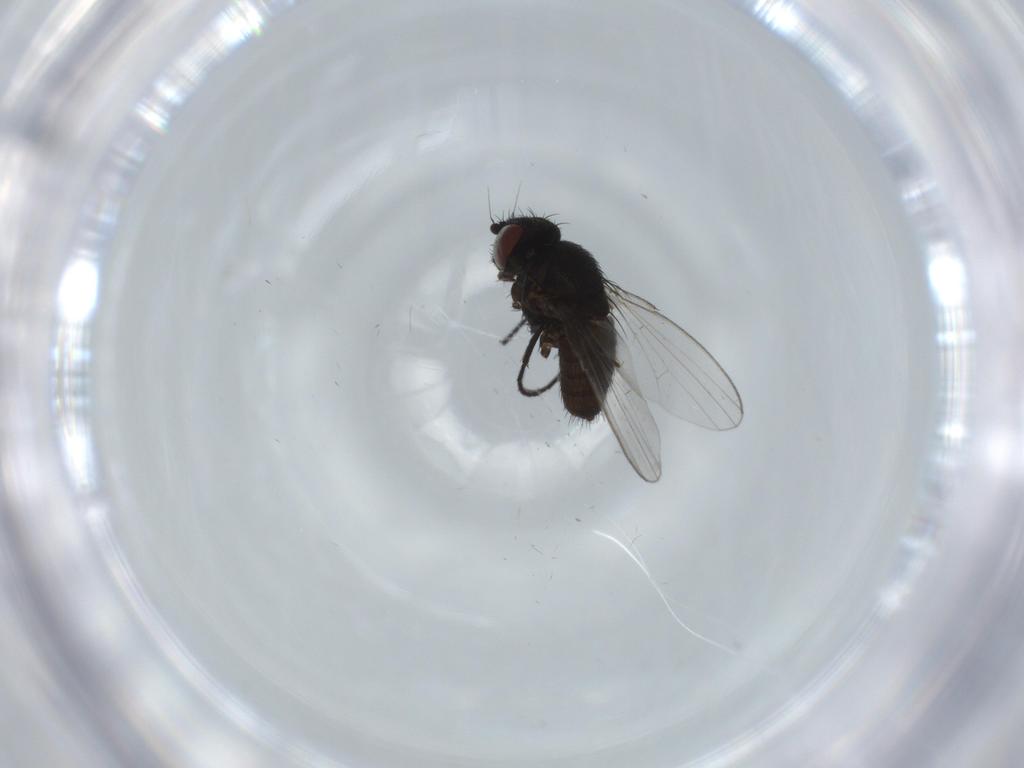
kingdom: Animalia
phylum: Arthropoda
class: Insecta
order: Diptera
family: Milichiidae
